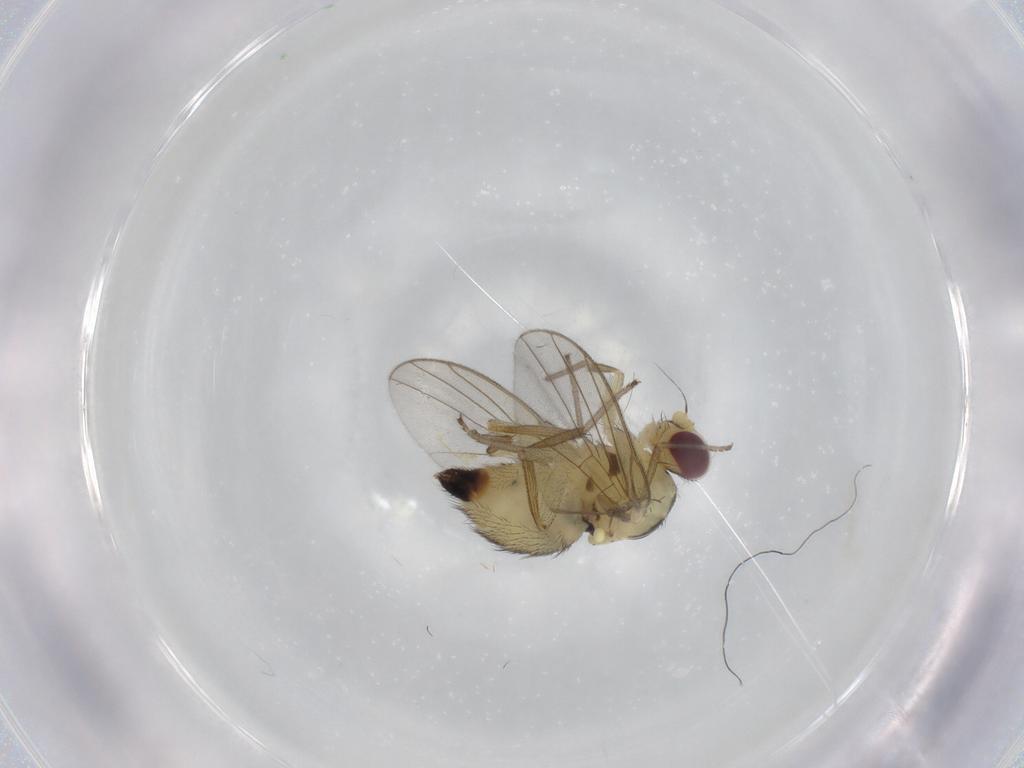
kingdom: Animalia
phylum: Arthropoda
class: Insecta
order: Diptera
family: Agromyzidae
